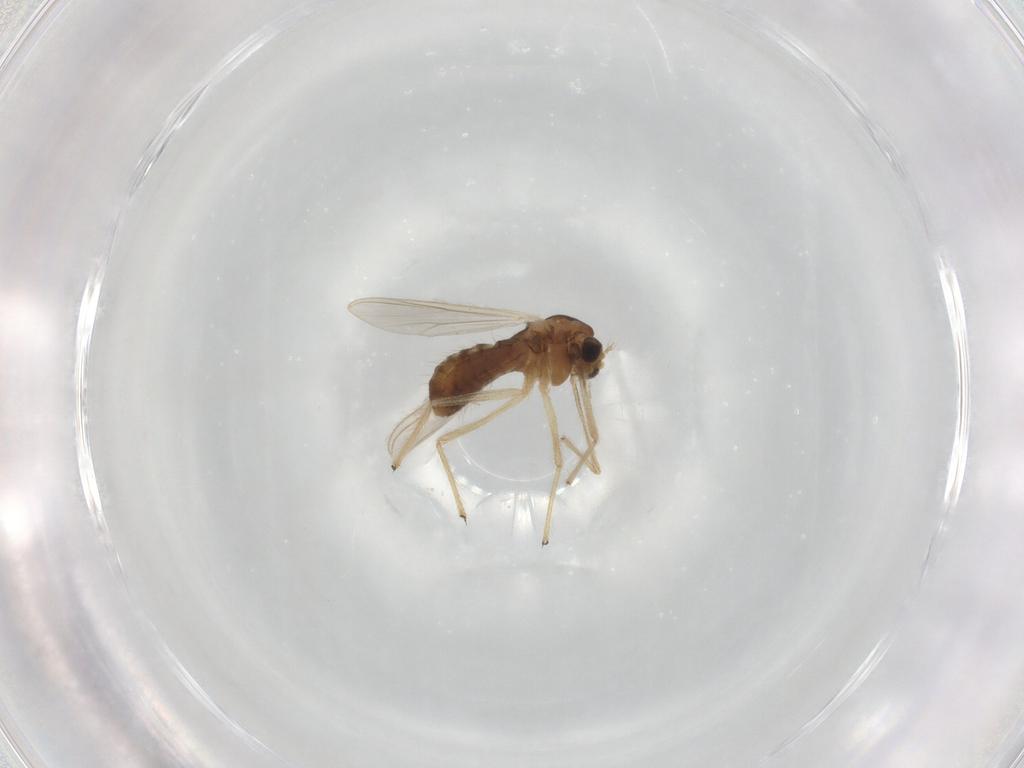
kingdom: Animalia
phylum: Arthropoda
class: Insecta
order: Diptera
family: Chironomidae
